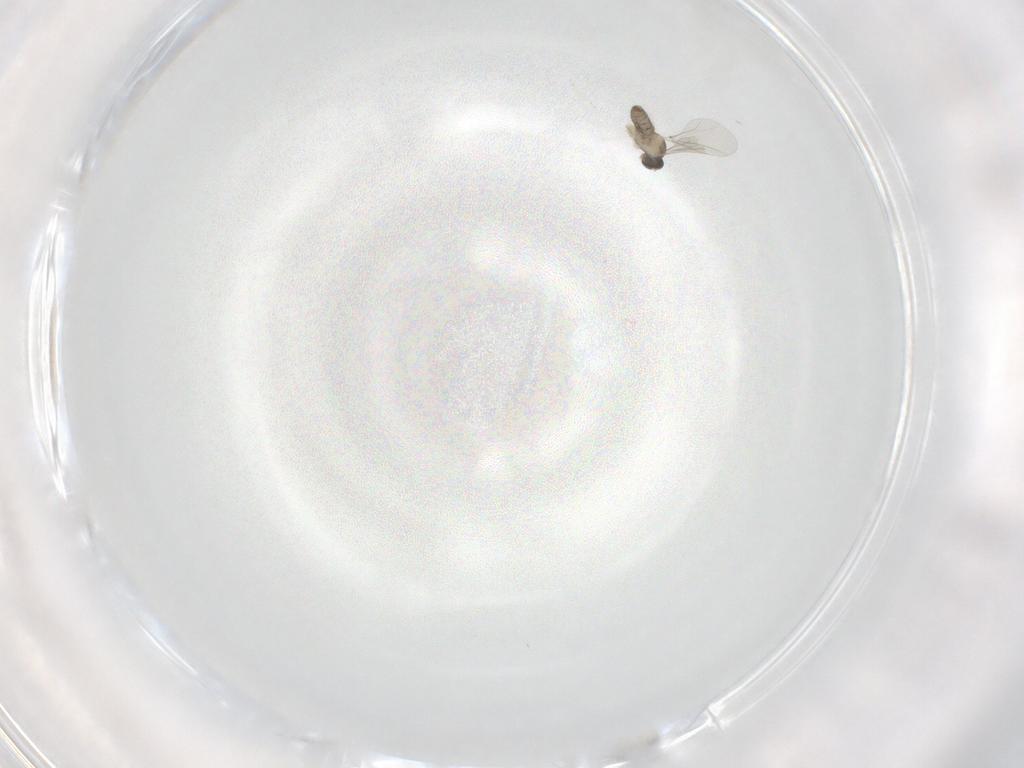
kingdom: Animalia
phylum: Arthropoda
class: Insecta
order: Diptera
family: Cecidomyiidae
